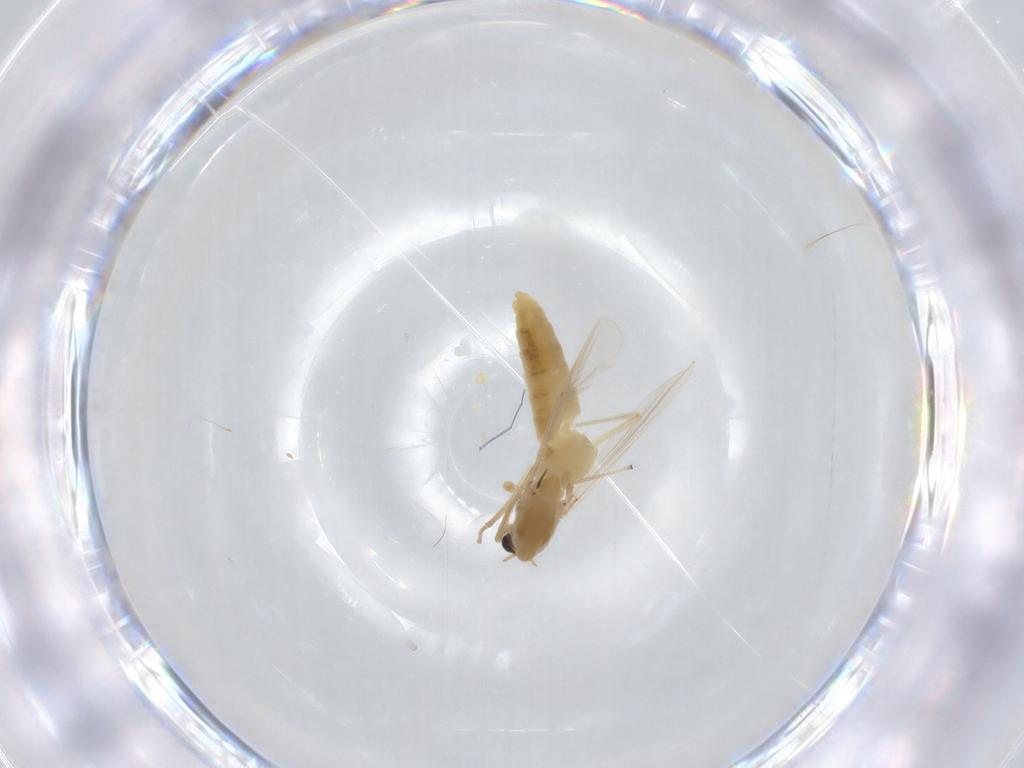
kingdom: Animalia
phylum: Arthropoda
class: Insecta
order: Diptera
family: Chironomidae
